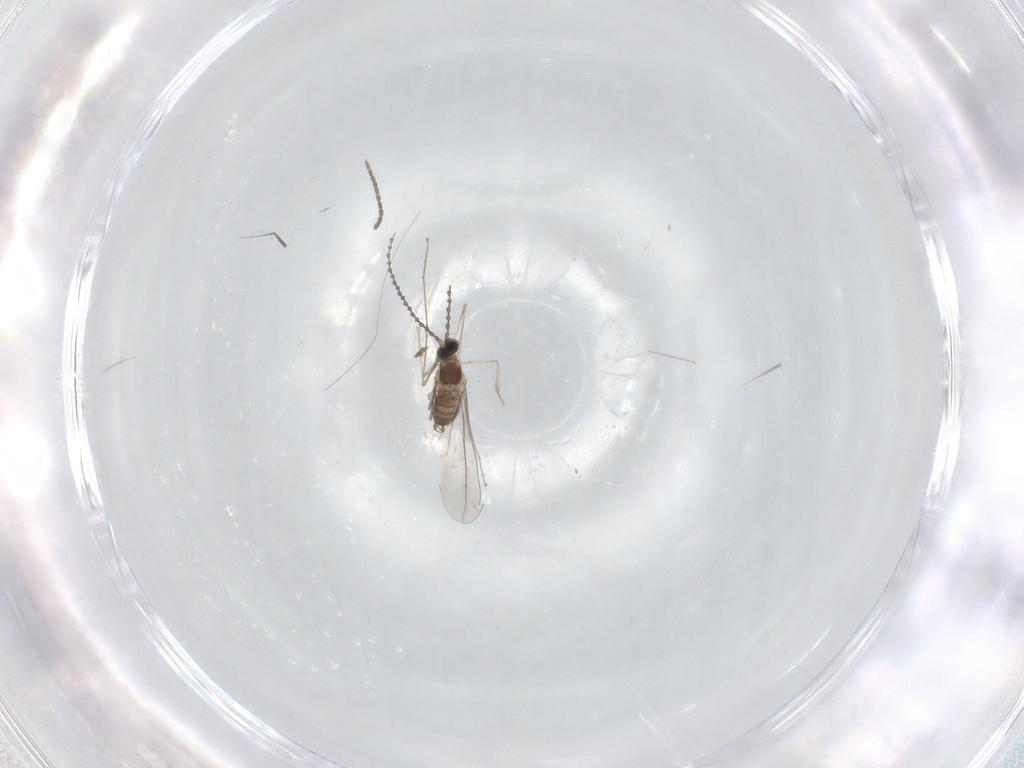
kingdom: Animalia
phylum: Arthropoda
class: Insecta
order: Diptera
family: Sciaridae
